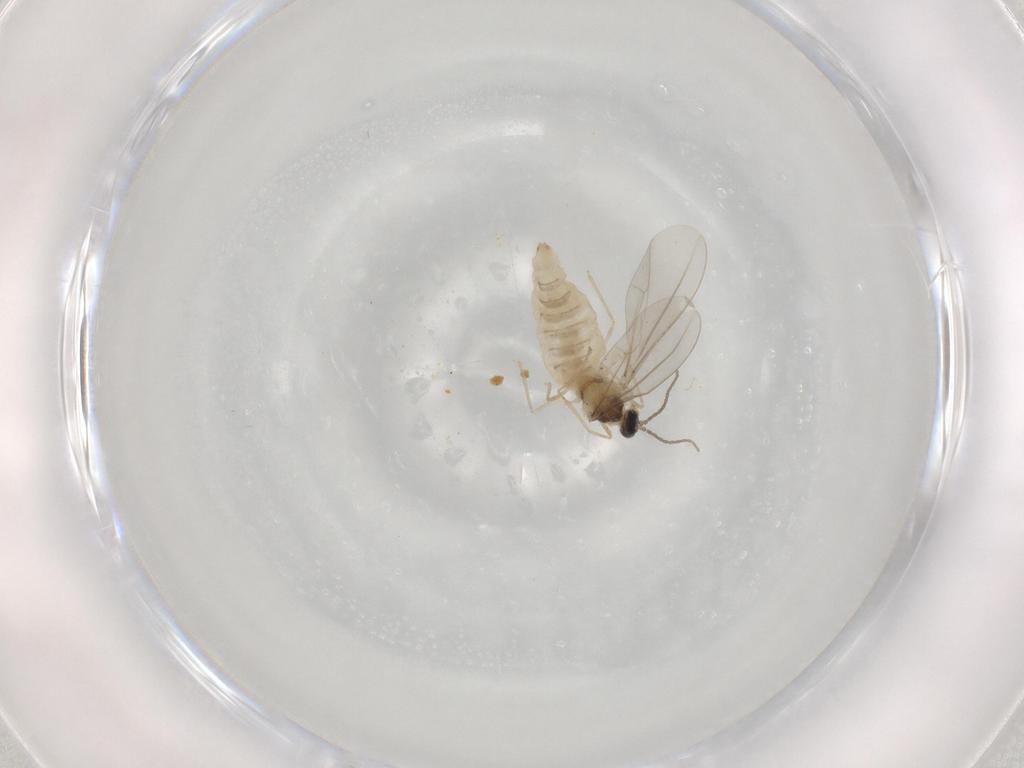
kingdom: Animalia
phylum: Arthropoda
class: Insecta
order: Diptera
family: Cecidomyiidae
